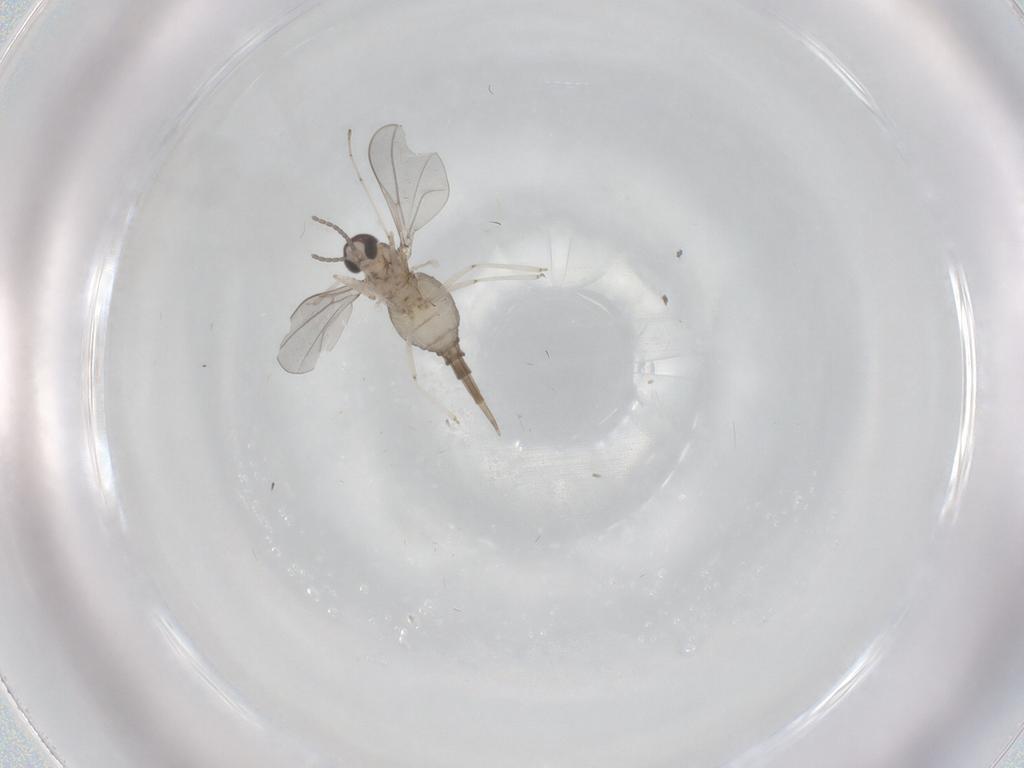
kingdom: Animalia
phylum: Arthropoda
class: Insecta
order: Diptera
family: Cecidomyiidae
